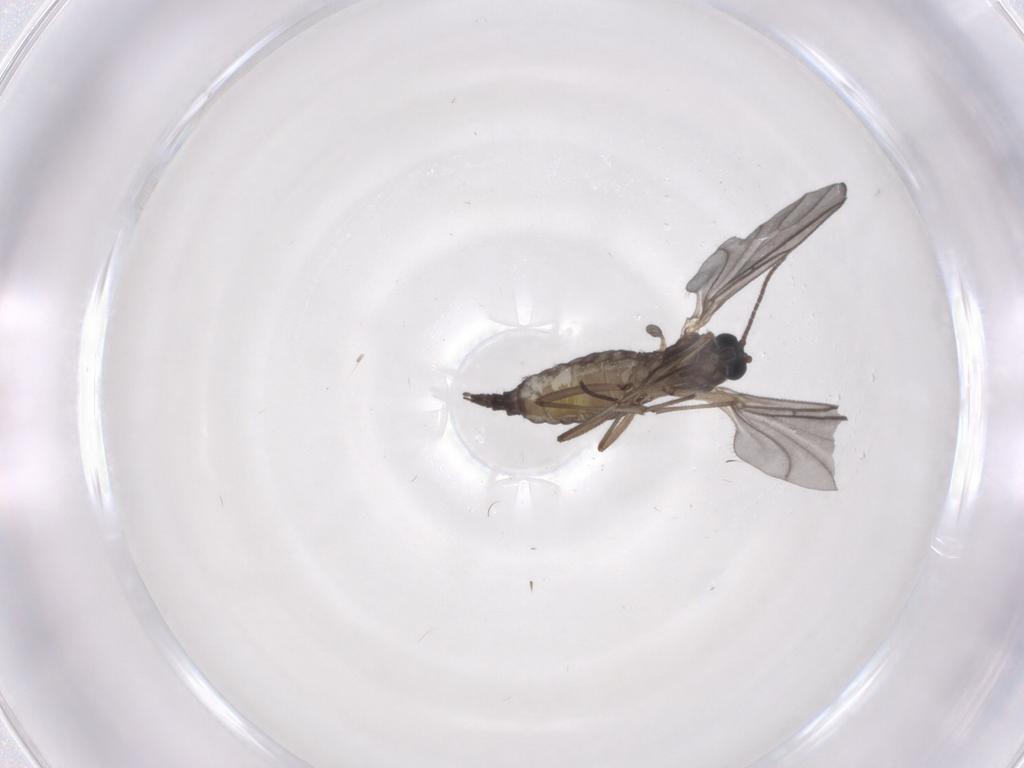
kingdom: Animalia
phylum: Arthropoda
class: Insecta
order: Diptera
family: Sciaridae
